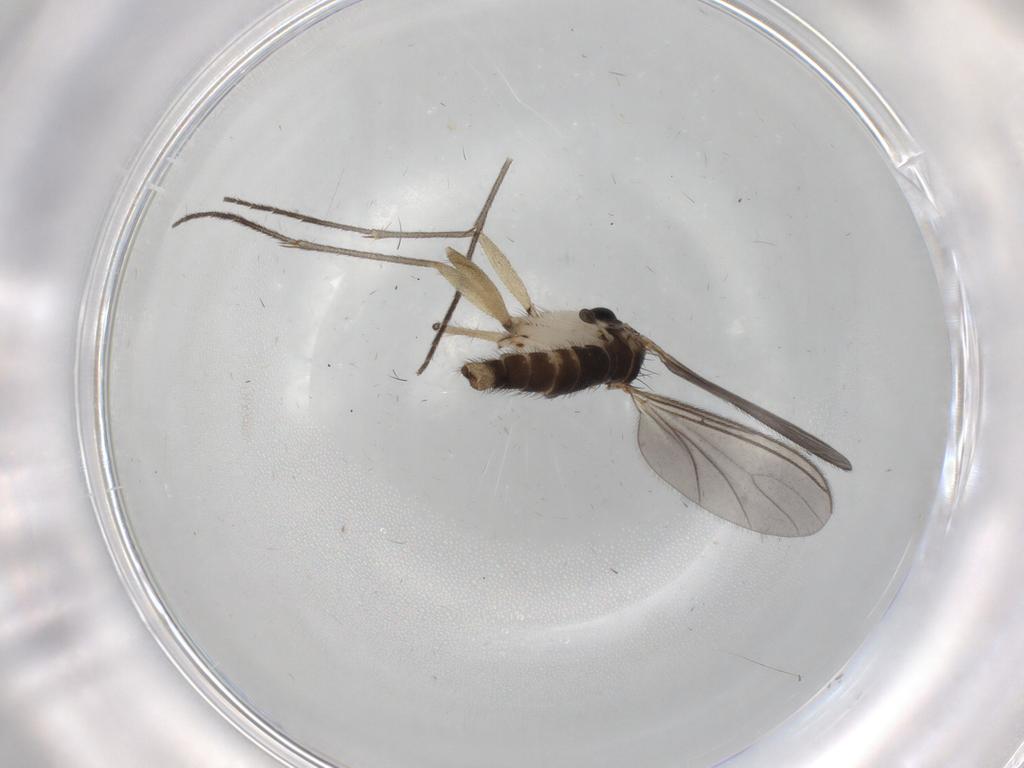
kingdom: Animalia
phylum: Arthropoda
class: Insecta
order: Diptera
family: Sciaridae
